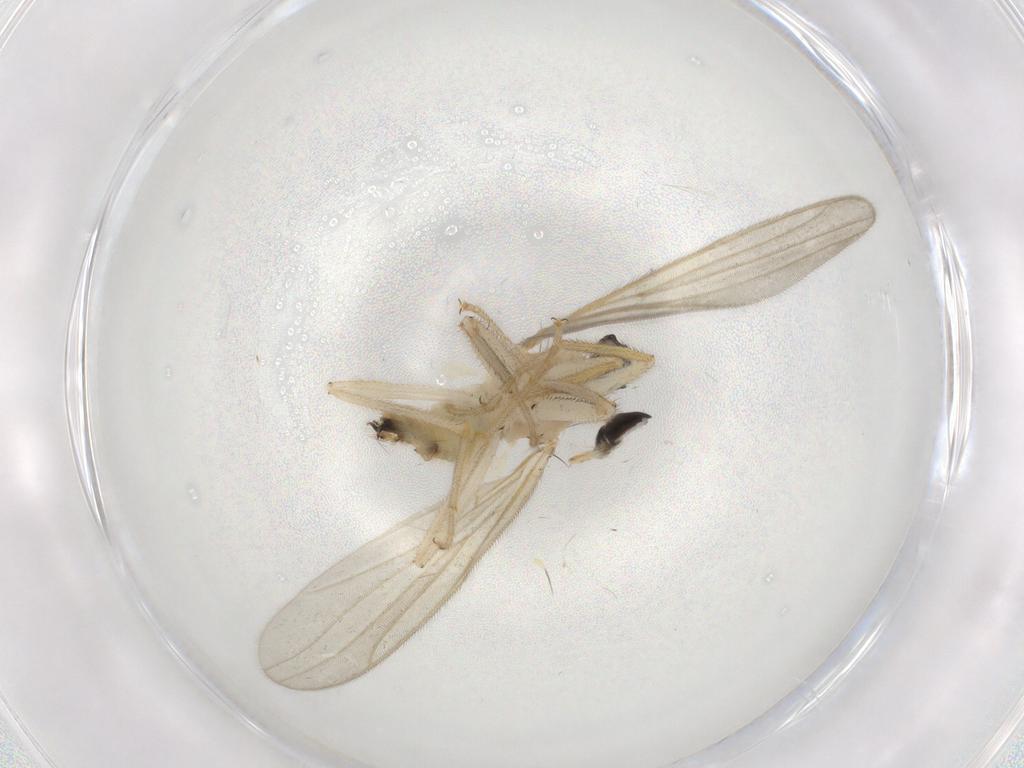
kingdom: Animalia
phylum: Arthropoda
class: Insecta
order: Diptera
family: Hybotidae
